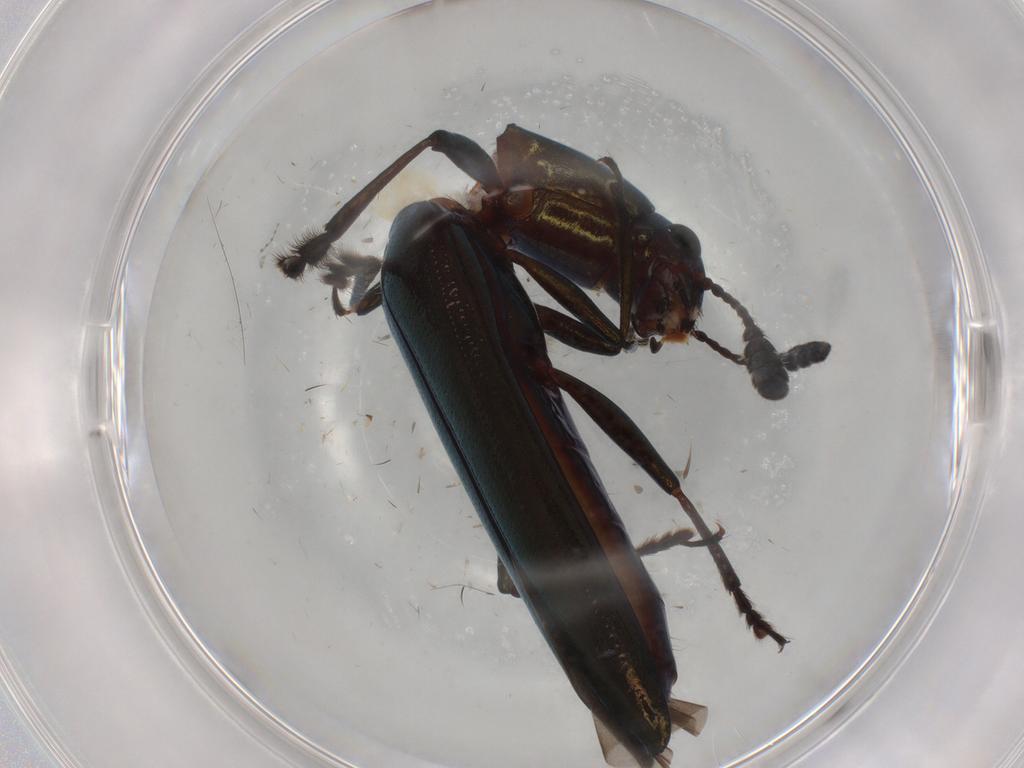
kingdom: Animalia
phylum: Arthropoda
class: Insecta
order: Coleoptera
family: Erotylidae
